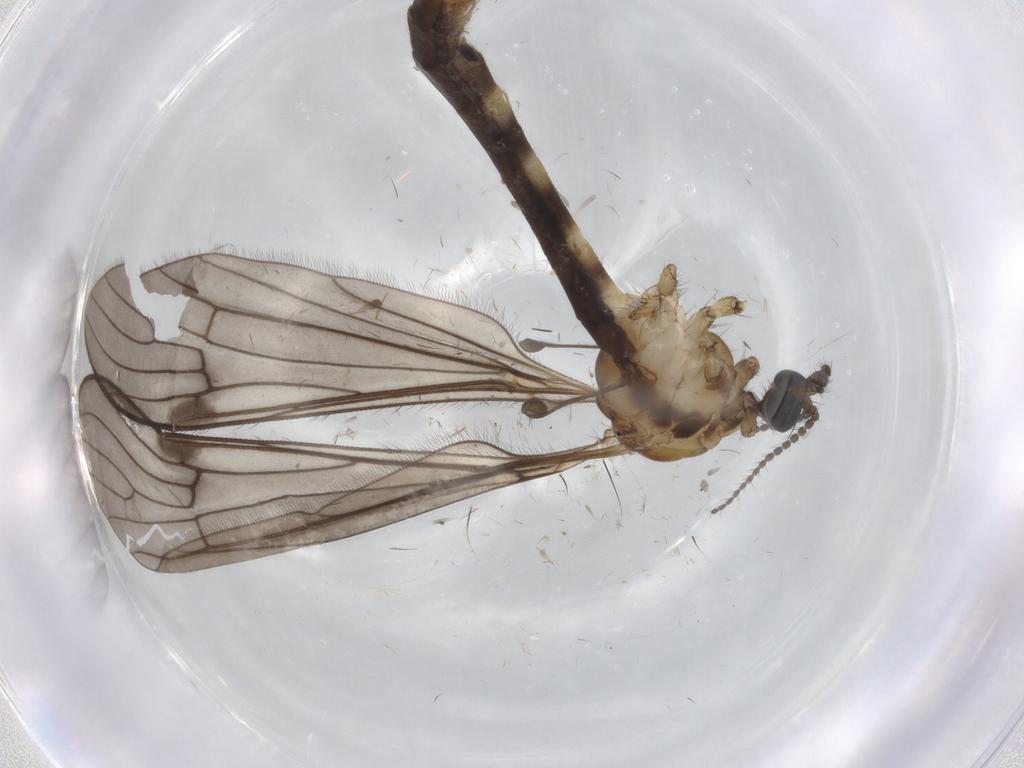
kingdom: Animalia
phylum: Arthropoda
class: Insecta
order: Diptera
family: Limoniidae
